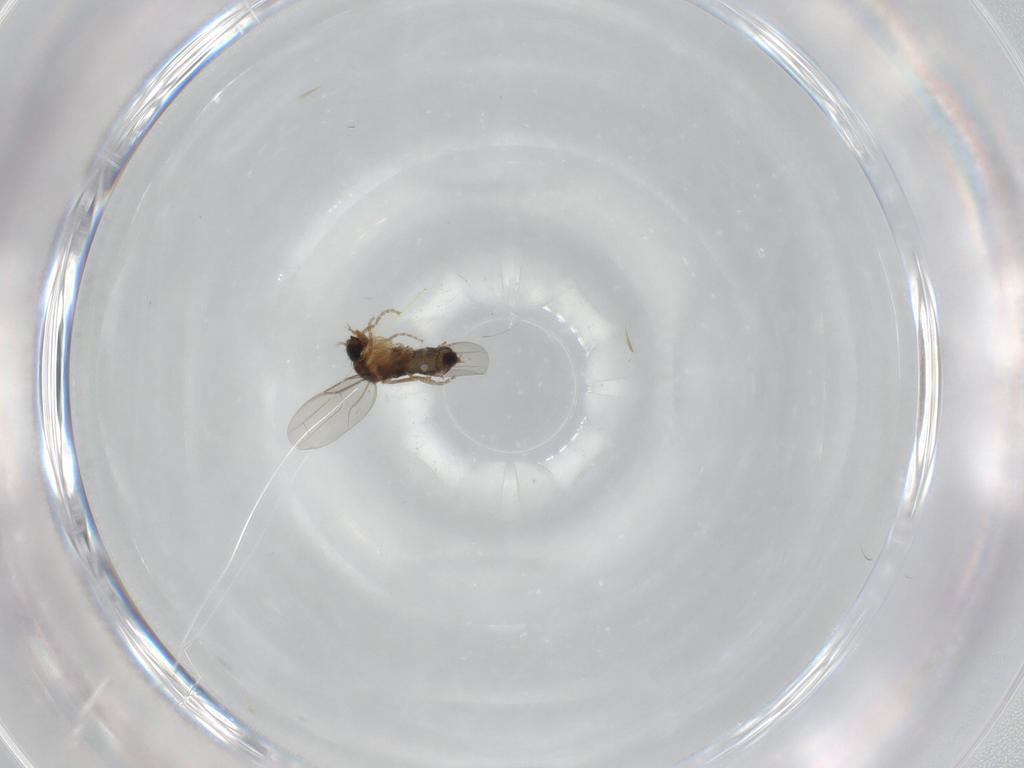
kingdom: Animalia
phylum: Arthropoda
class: Insecta
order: Diptera
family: Phoridae
